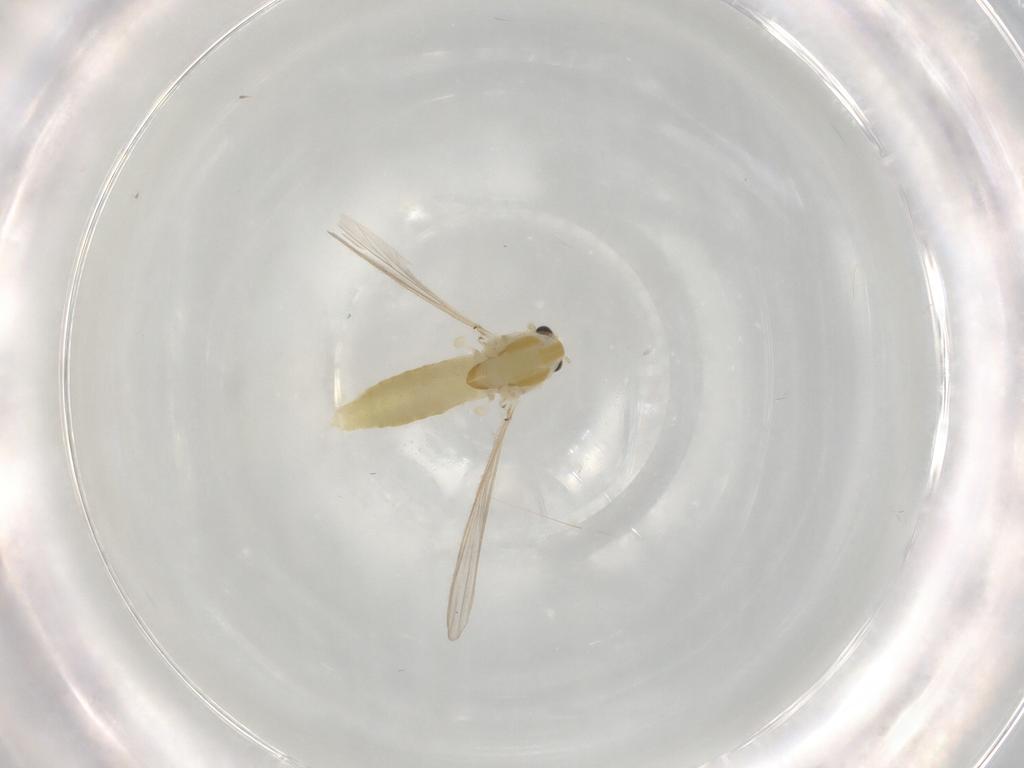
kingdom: Animalia
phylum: Arthropoda
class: Insecta
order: Diptera
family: Chironomidae
